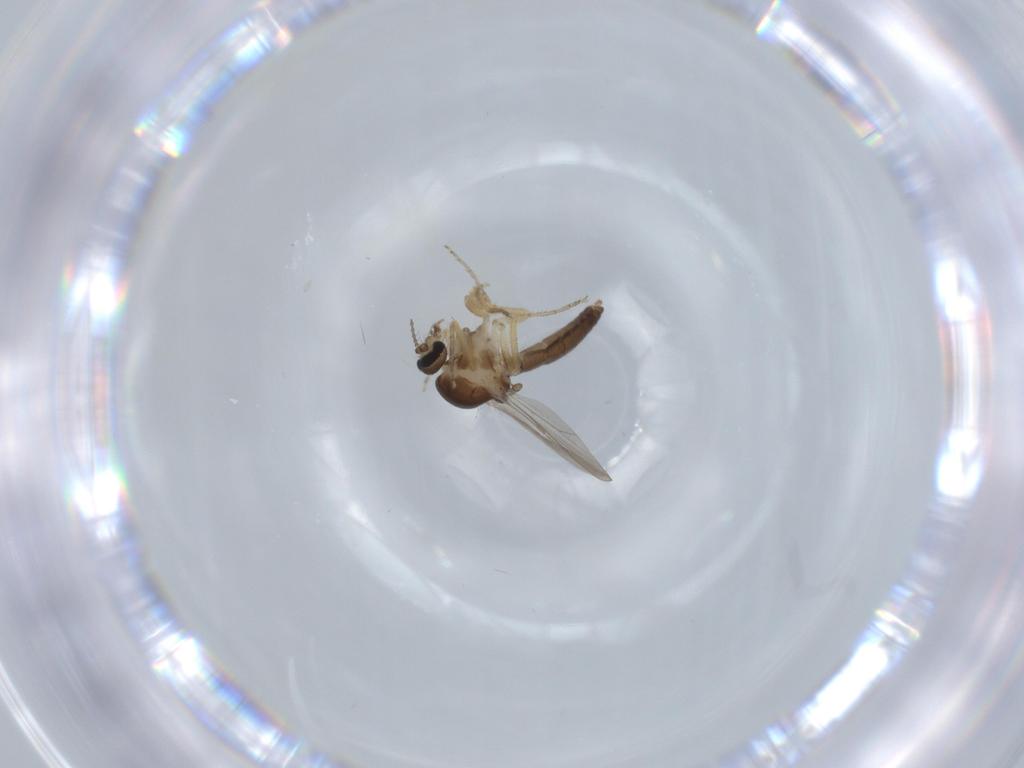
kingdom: Animalia
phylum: Arthropoda
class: Insecta
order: Diptera
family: Ceratopogonidae
